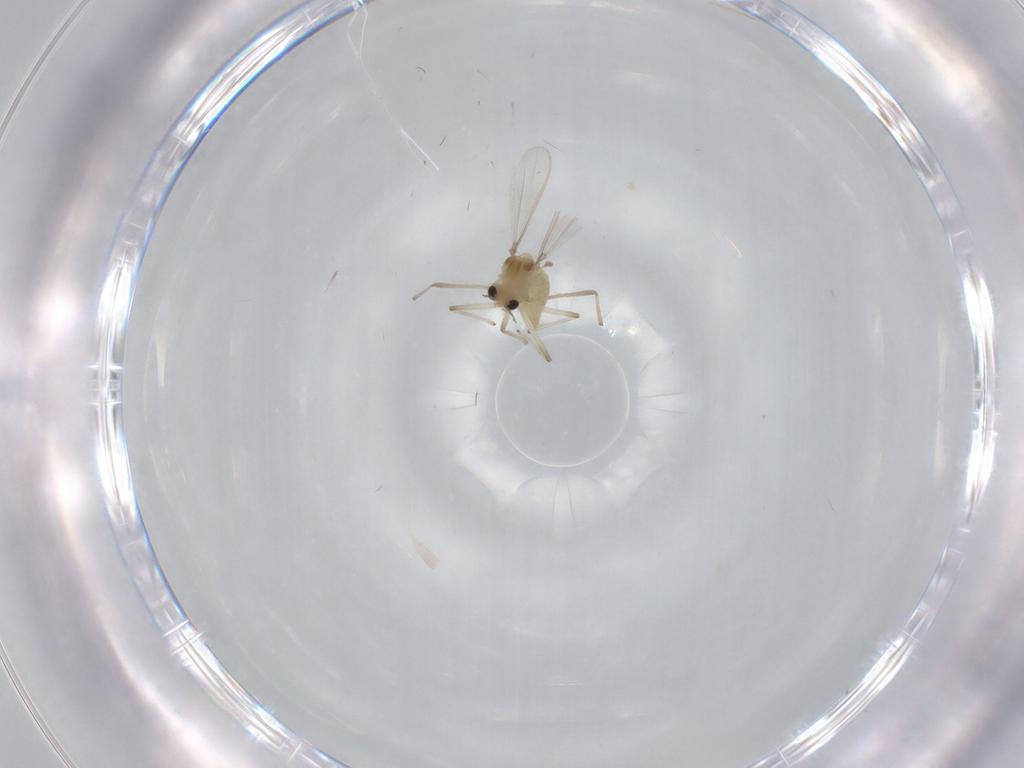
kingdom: Animalia
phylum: Arthropoda
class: Insecta
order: Diptera
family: Chironomidae
